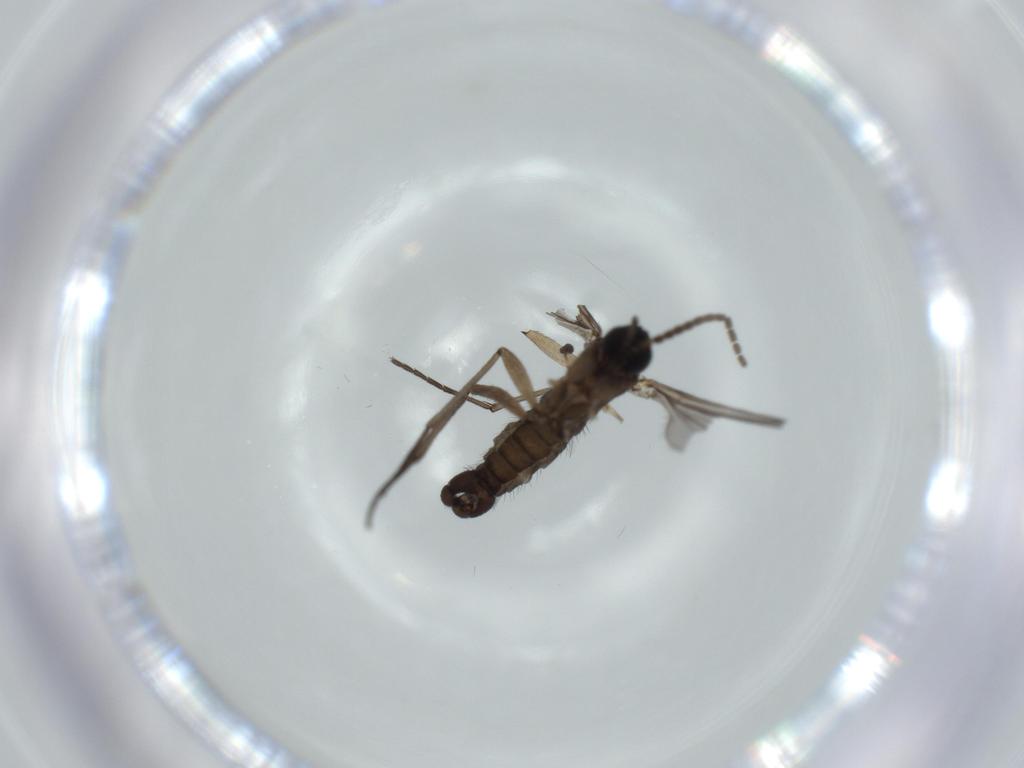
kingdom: Animalia
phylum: Arthropoda
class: Insecta
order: Diptera
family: Sciaridae
